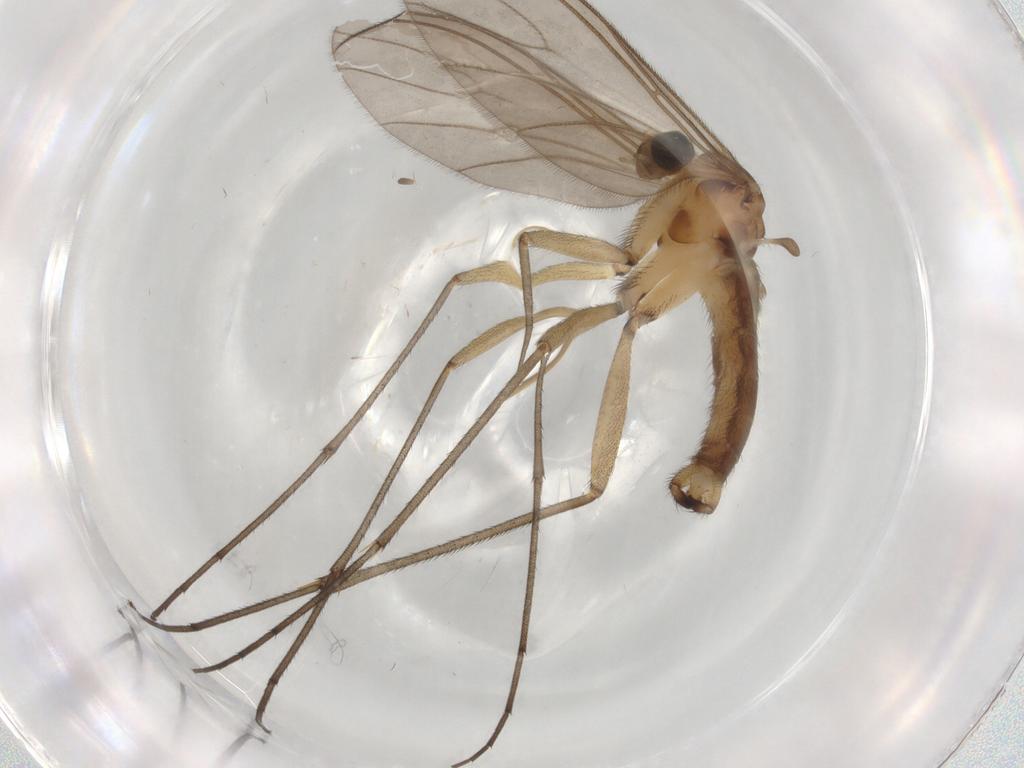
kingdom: Animalia
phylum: Arthropoda
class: Insecta
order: Diptera
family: Sciaridae
